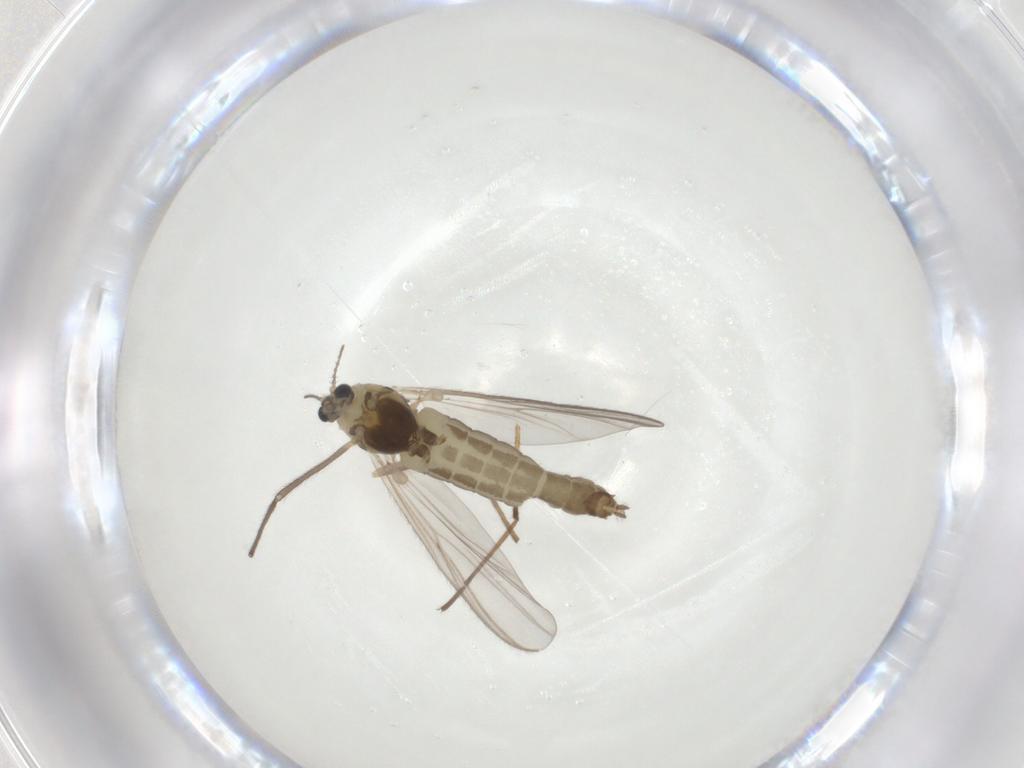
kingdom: Animalia
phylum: Arthropoda
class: Insecta
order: Diptera
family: Chironomidae
